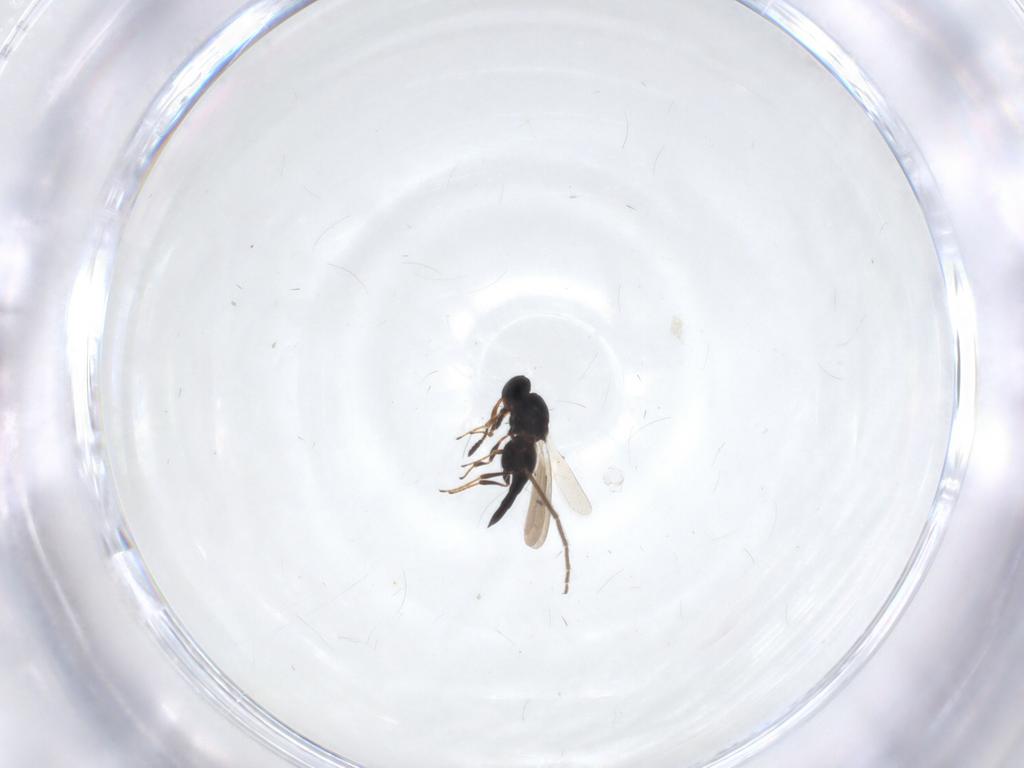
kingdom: Animalia
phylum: Arthropoda
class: Insecta
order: Diptera
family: Chironomidae
